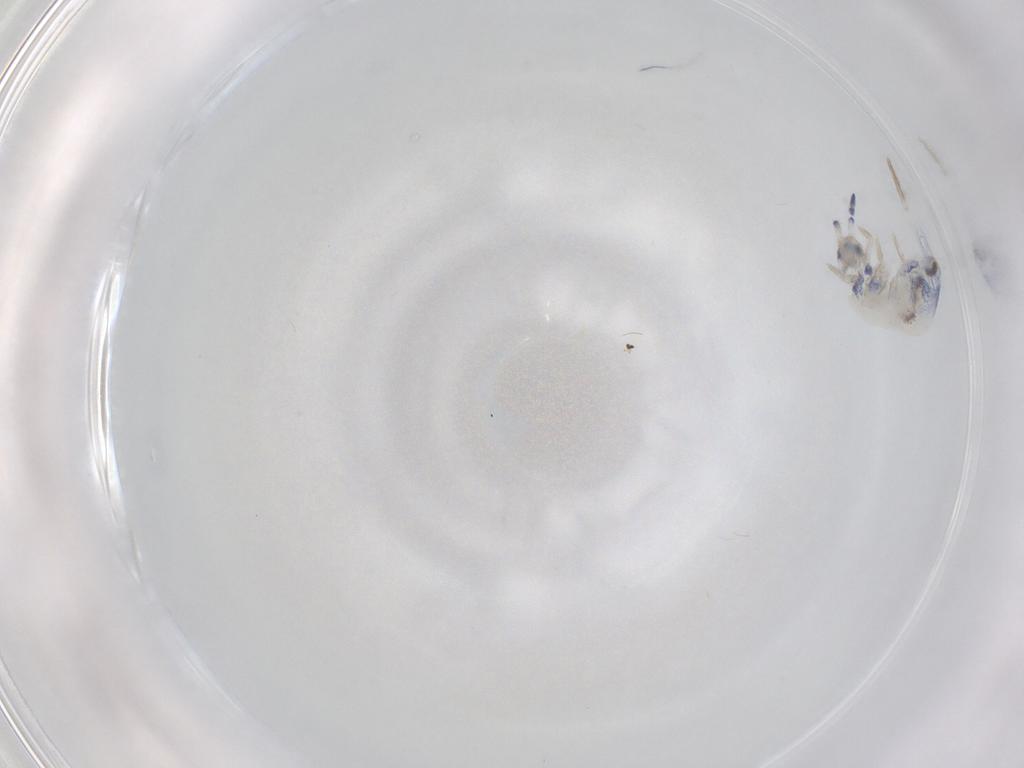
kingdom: Animalia
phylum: Arthropoda
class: Collembola
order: Entomobryomorpha
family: Entomobryidae
